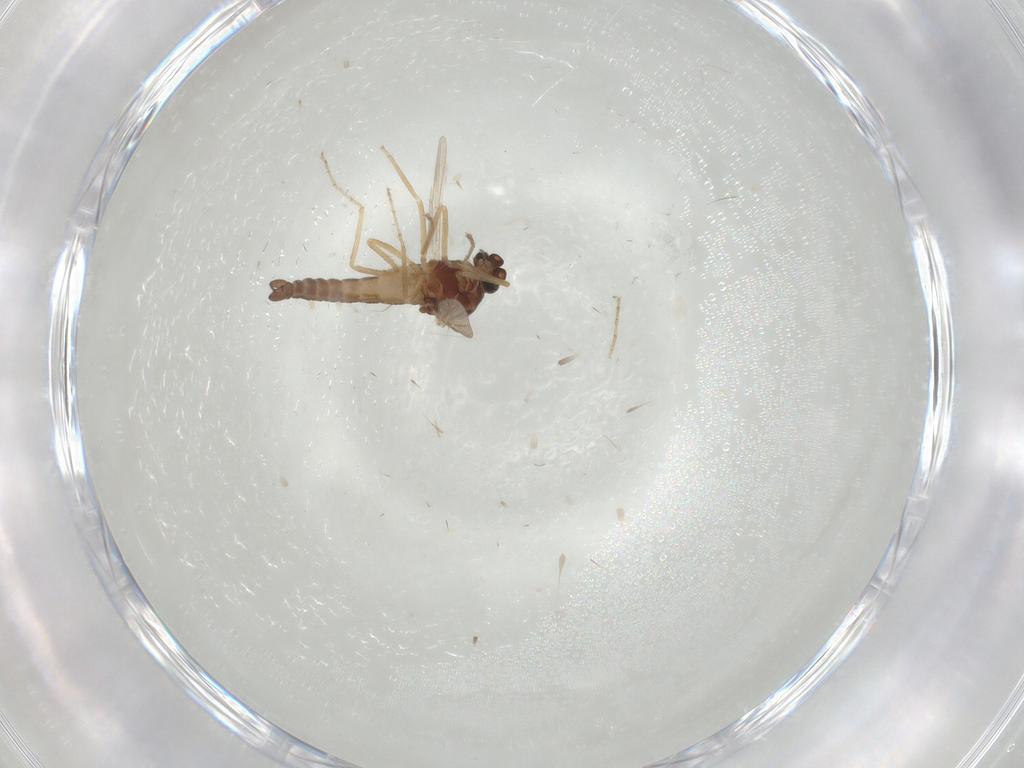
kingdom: Animalia
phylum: Arthropoda
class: Insecta
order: Diptera
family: Ceratopogonidae
